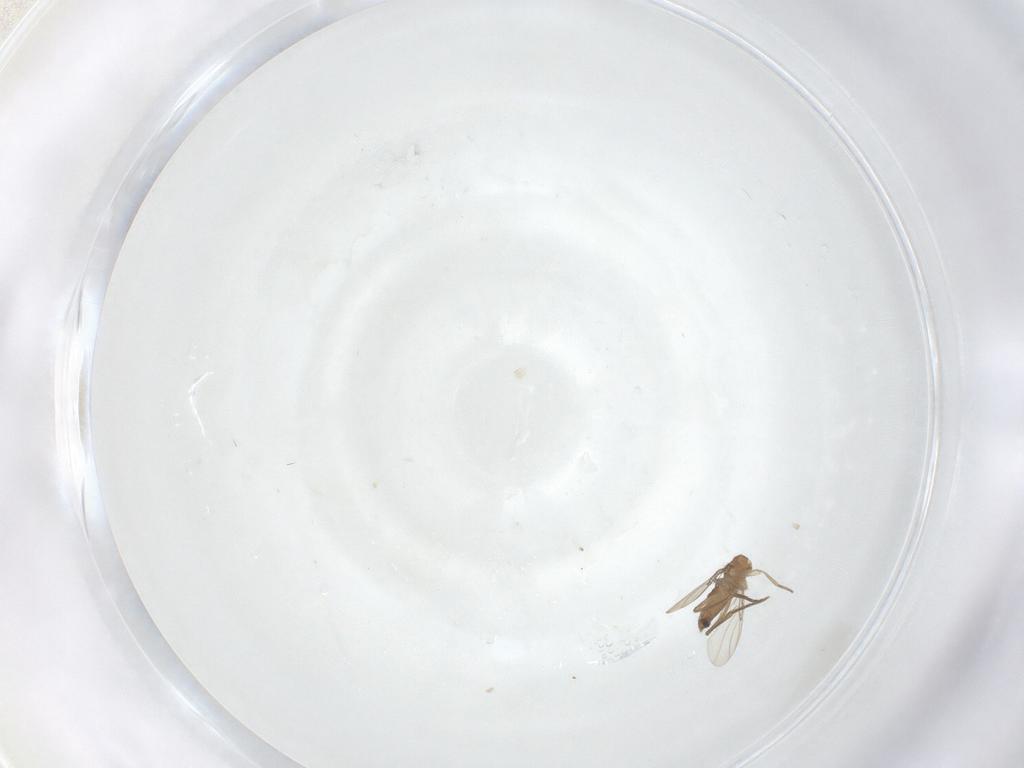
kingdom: Animalia
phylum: Arthropoda
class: Insecta
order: Diptera
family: Phoridae
